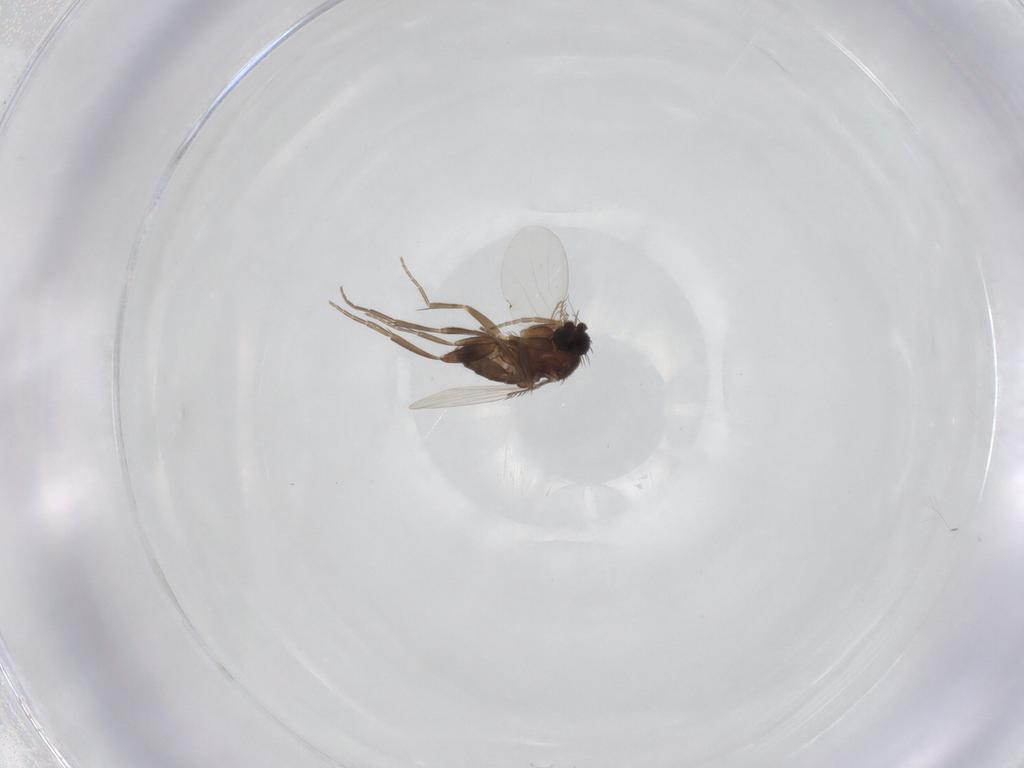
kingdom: Animalia
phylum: Arthropoda
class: Insecta
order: Diptera
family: Phoridae
